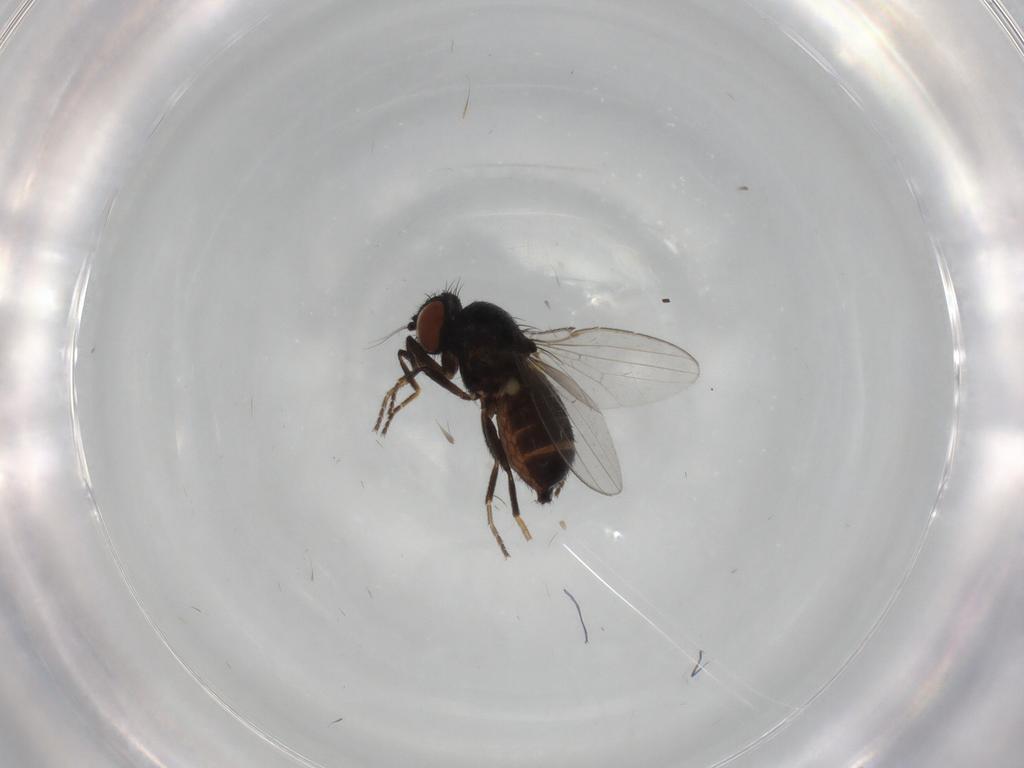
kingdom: Animalia
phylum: Arthropoda
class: Insecta
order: Diptera
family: Milichiidae
